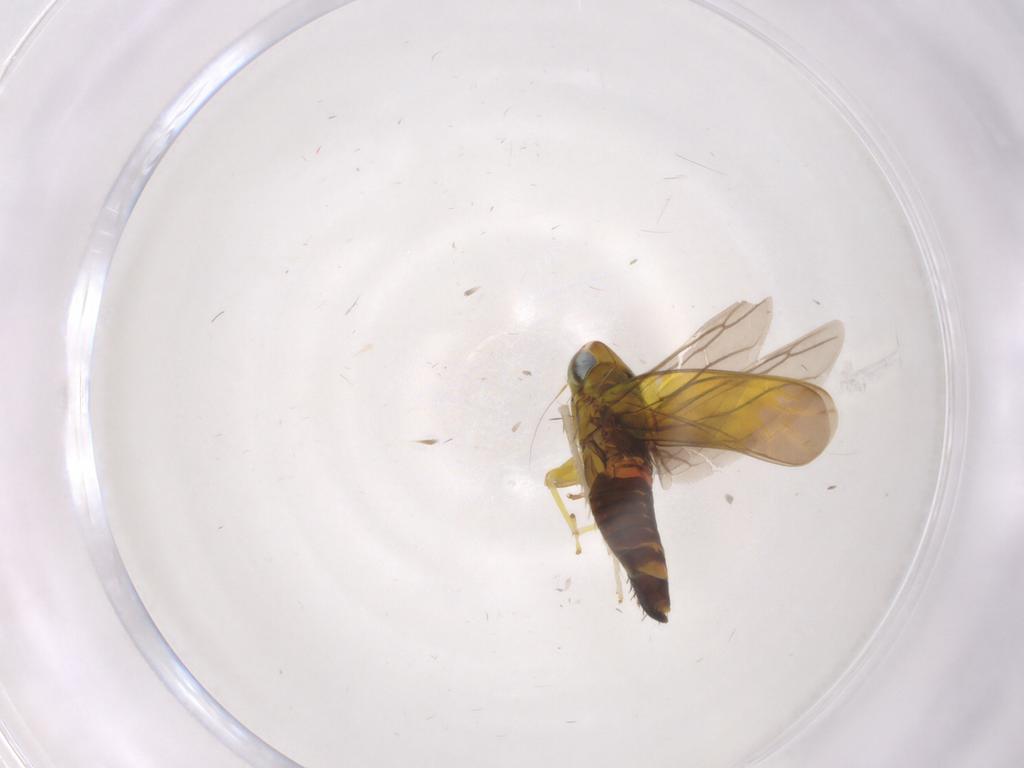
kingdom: Animalia
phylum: Arthropoda
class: Insecta
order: Hemiptera
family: Cicadellidae
